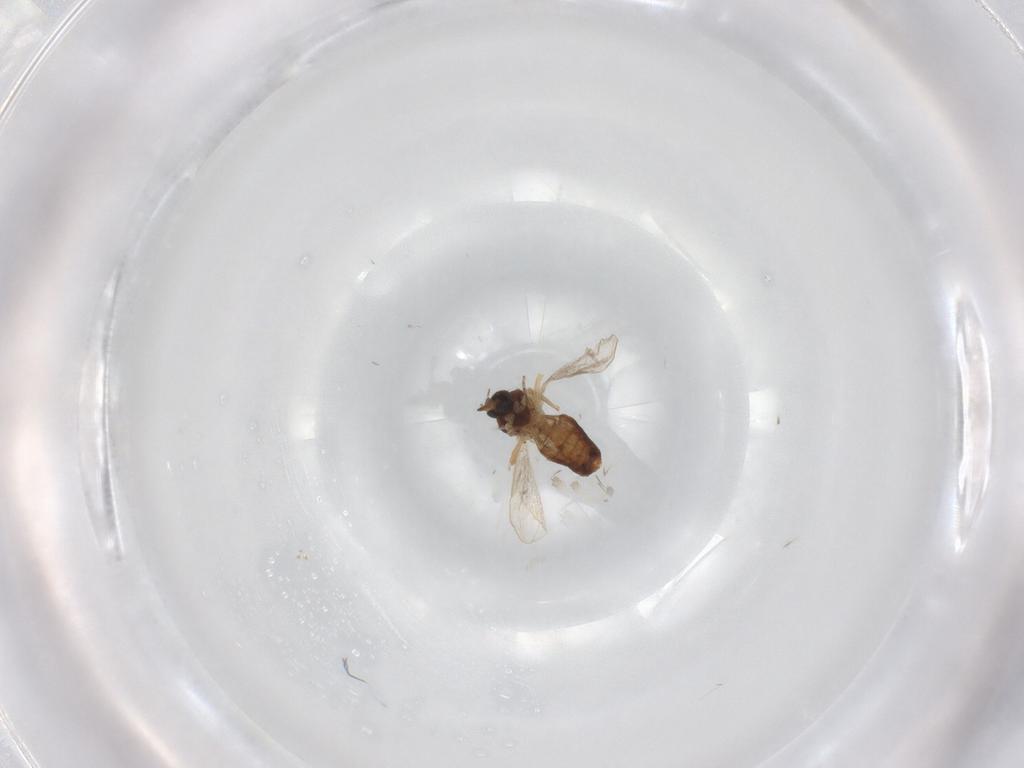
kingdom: Animalia
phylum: Arthropoda
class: Insecta
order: Diptera
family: Ceratopogonidae
